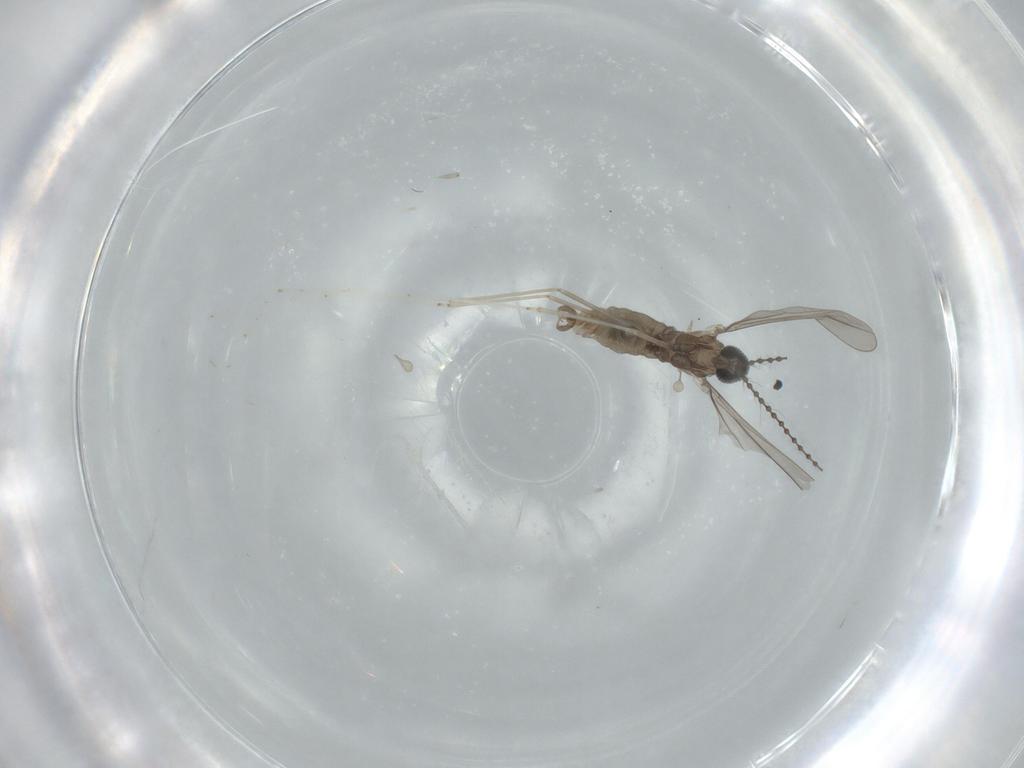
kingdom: Animalia
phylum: Arthropoda
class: Insecta
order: Diptera
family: Cecidomyiidae
